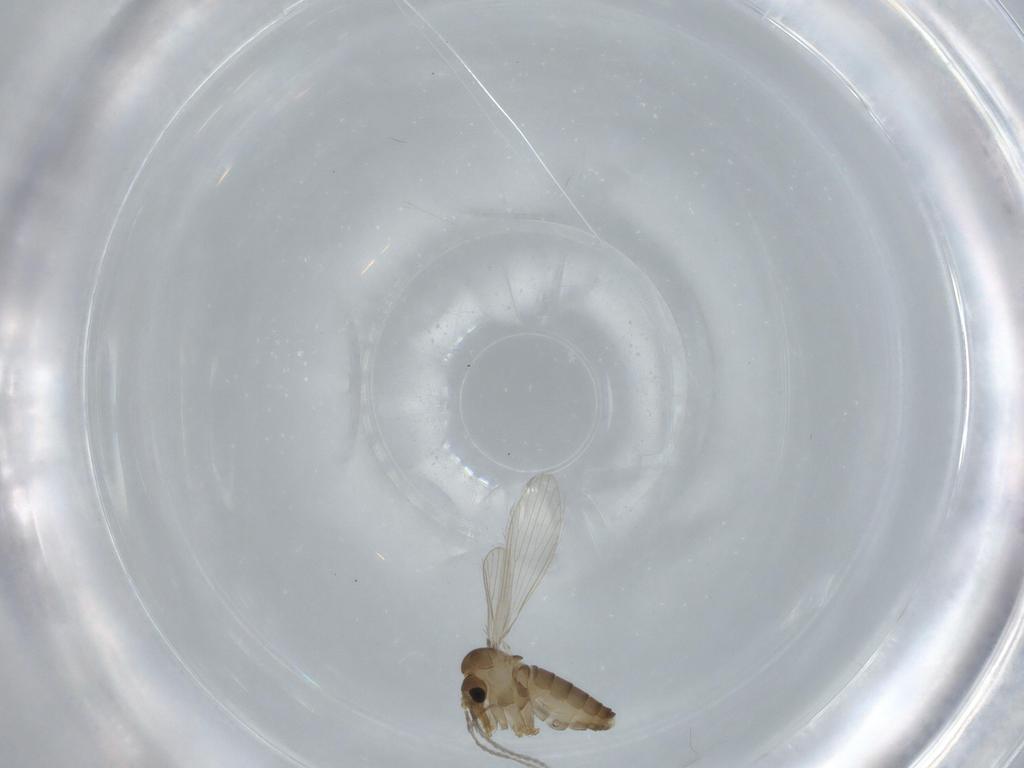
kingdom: Animalia
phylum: Arthropoda
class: Insecta
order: Diptera
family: Psychodidae
